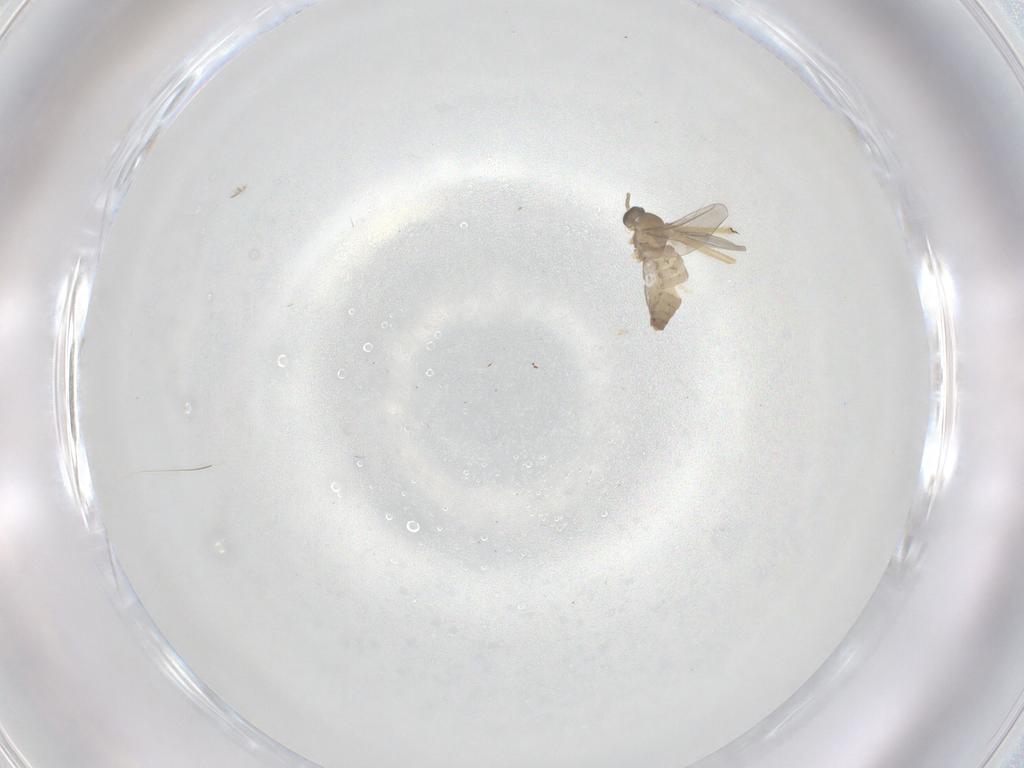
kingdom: Animalia
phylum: Arthropoda
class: Insecta
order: Diptera
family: Cecidomyiidae
